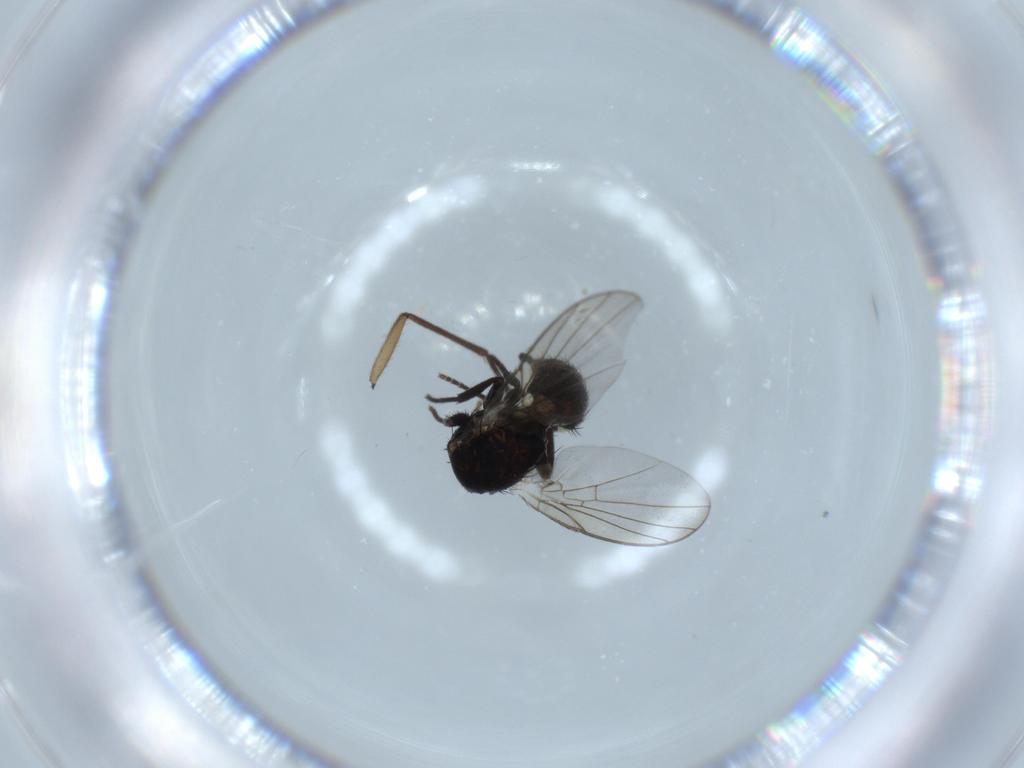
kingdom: Animalia
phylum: Arthropoda
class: Insecta
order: Diptera
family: Agromyzidae
